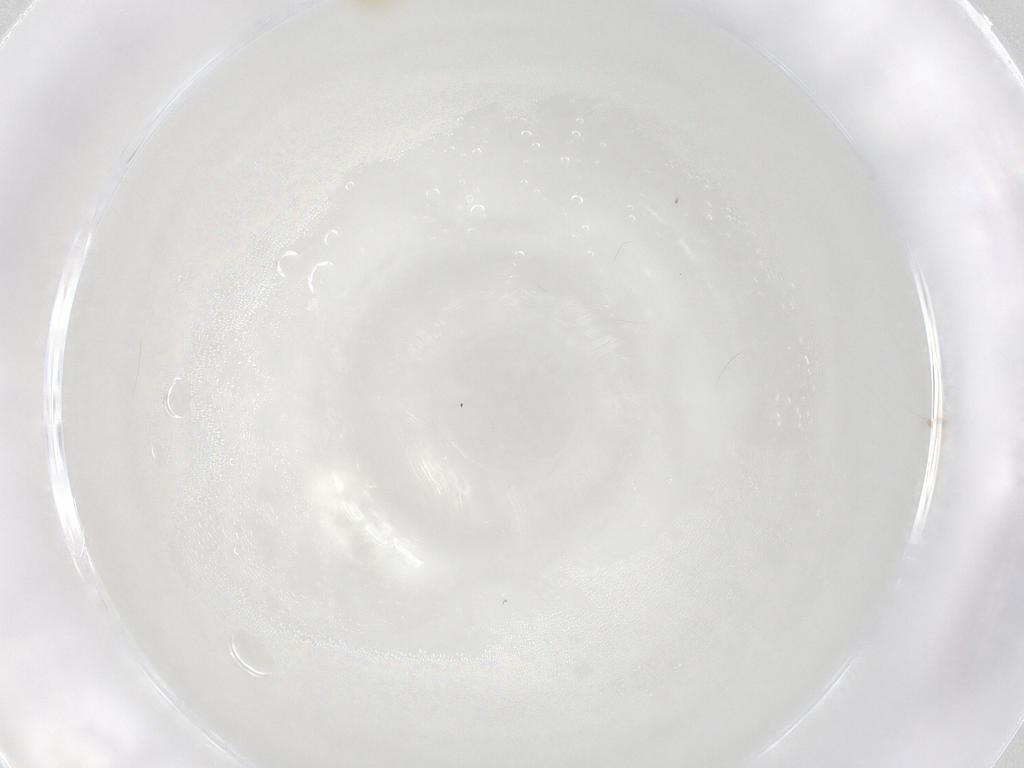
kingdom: Animalia
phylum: Arthropoda
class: Insecta
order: Hymenoptera
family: Aphelinidae
